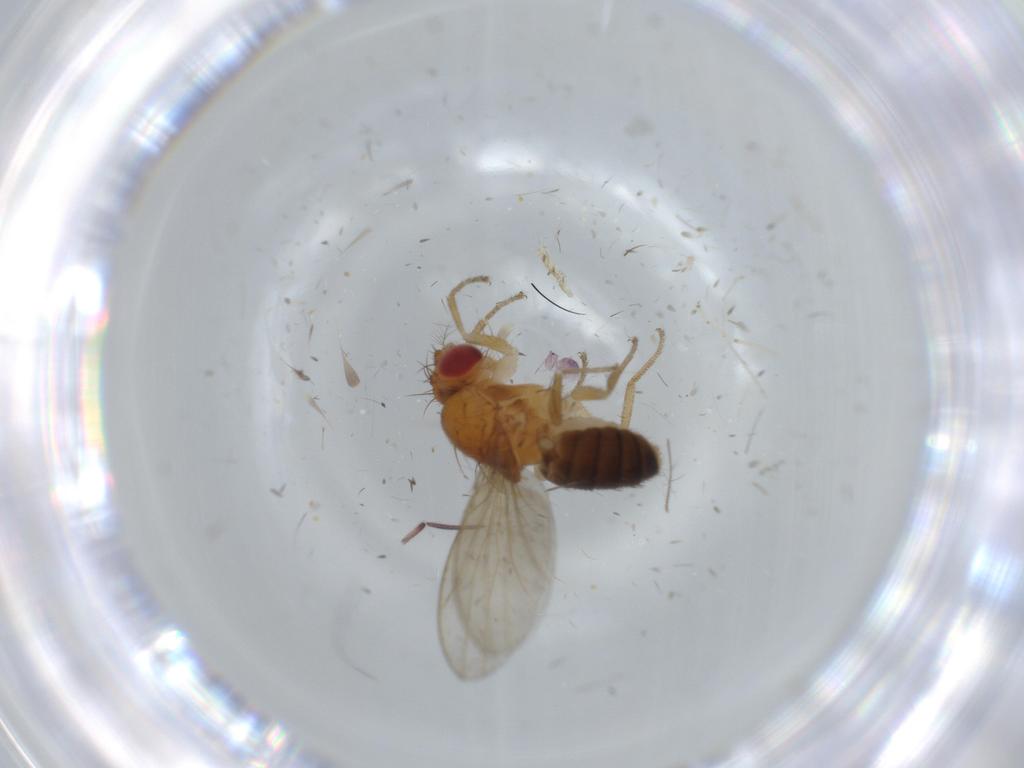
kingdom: Animalia
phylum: Arthropoda
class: Insecta
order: Diptera
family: Drosophilidae
